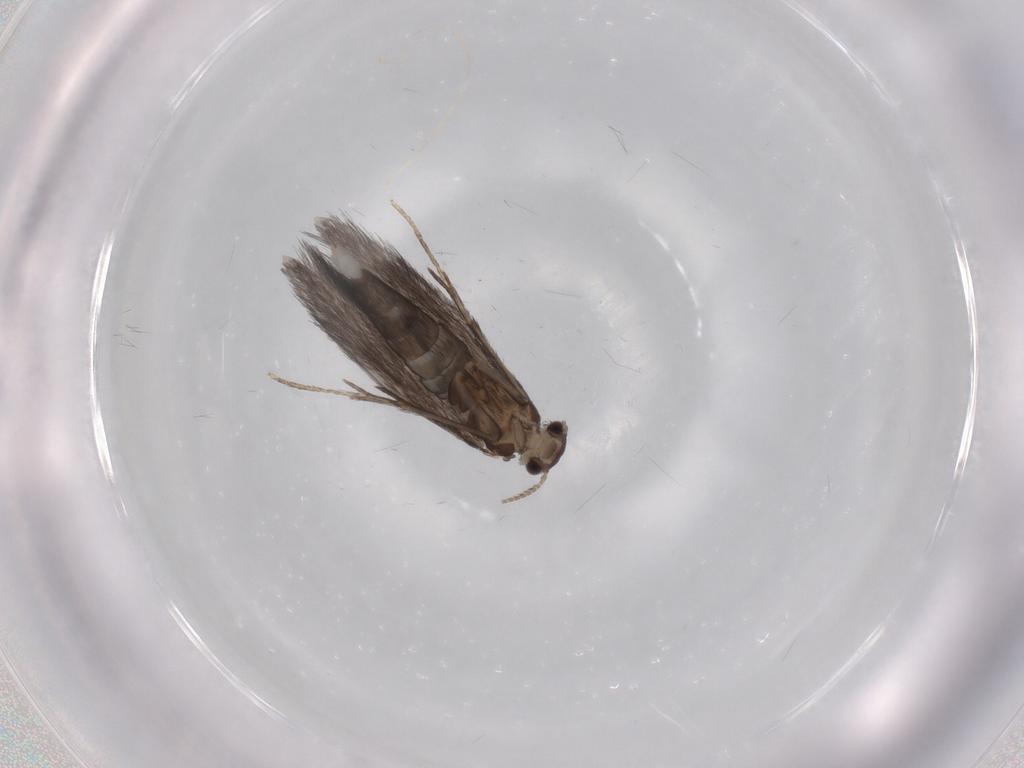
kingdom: Animalia
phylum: Arthropoda
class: Insecta
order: Trichoptera
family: Hydroptilidae
